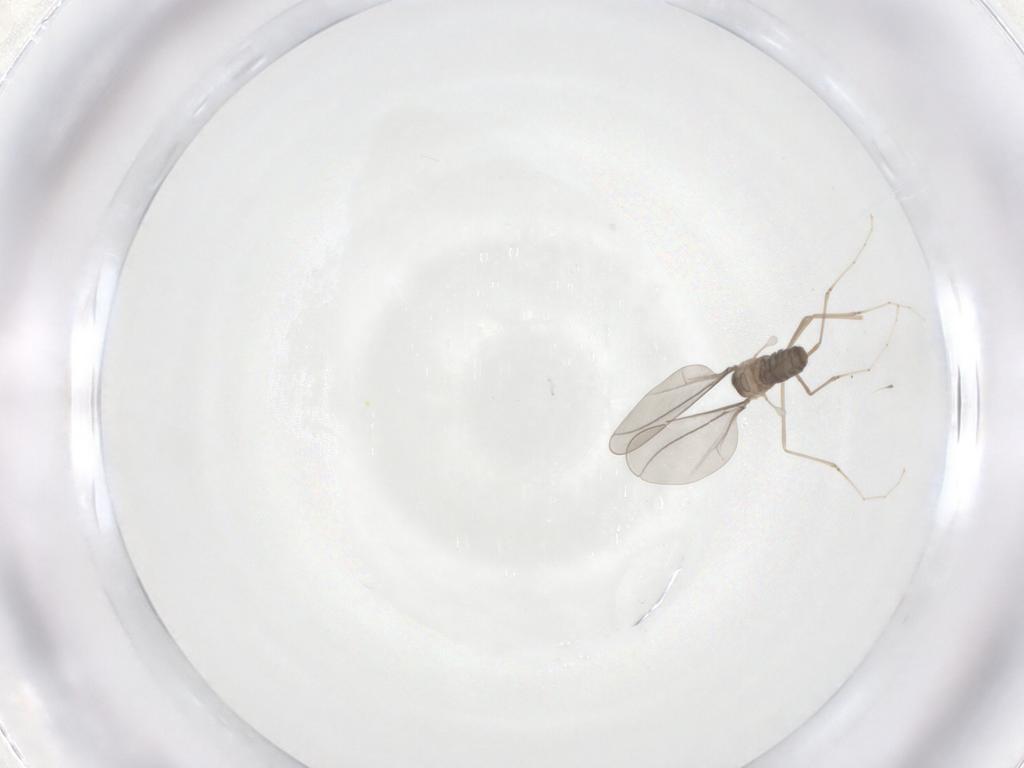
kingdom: Animalia
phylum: Arthropoda
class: Insecta
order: Diptera
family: Cecidomyiidae
